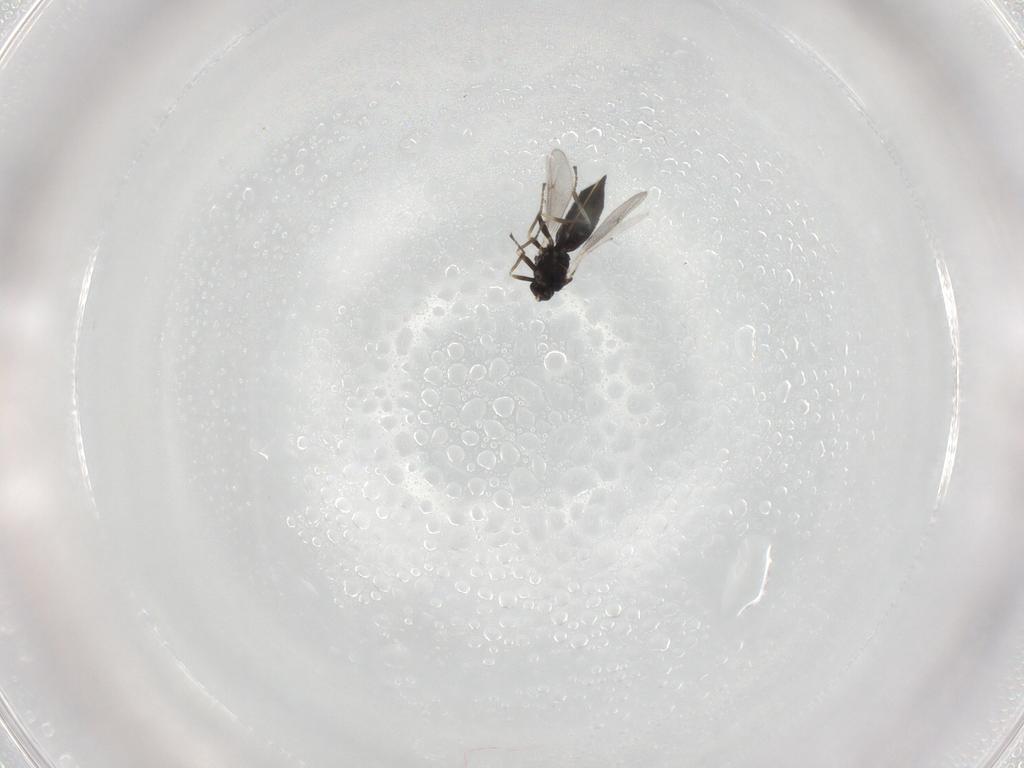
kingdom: Animalia
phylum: Arthropoda
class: Insecta
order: Hymenoptera
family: Eulophidae
